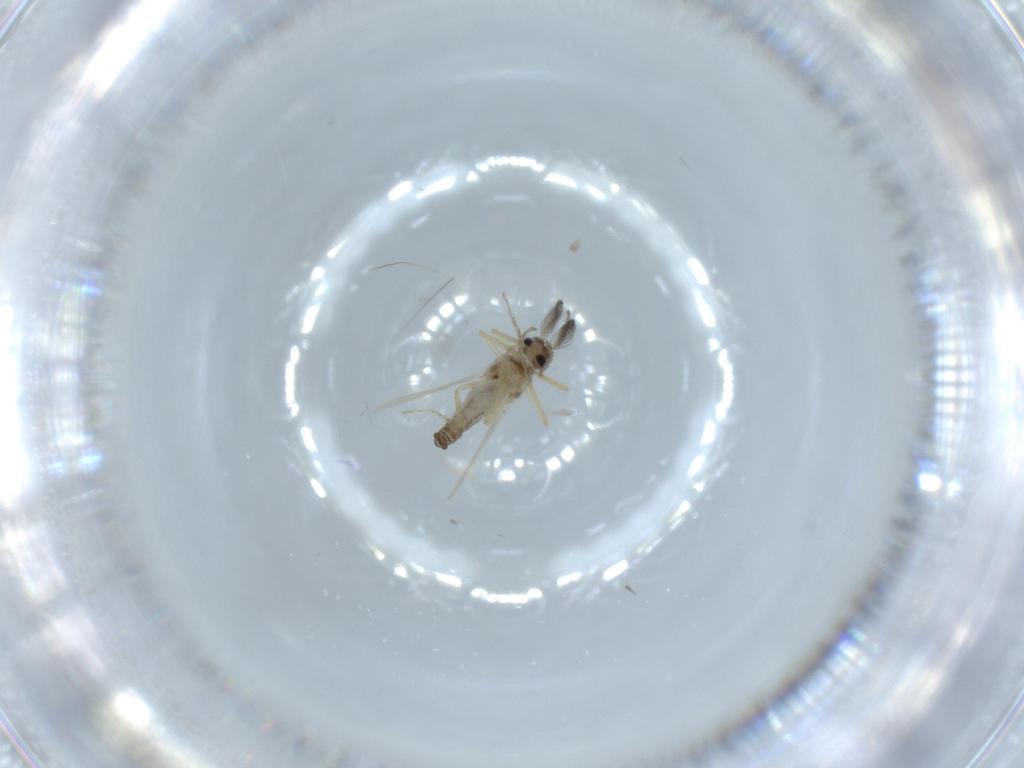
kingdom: Animalia
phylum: Arthropoda
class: Insecta
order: Diptera
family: Ceratopogonidae
